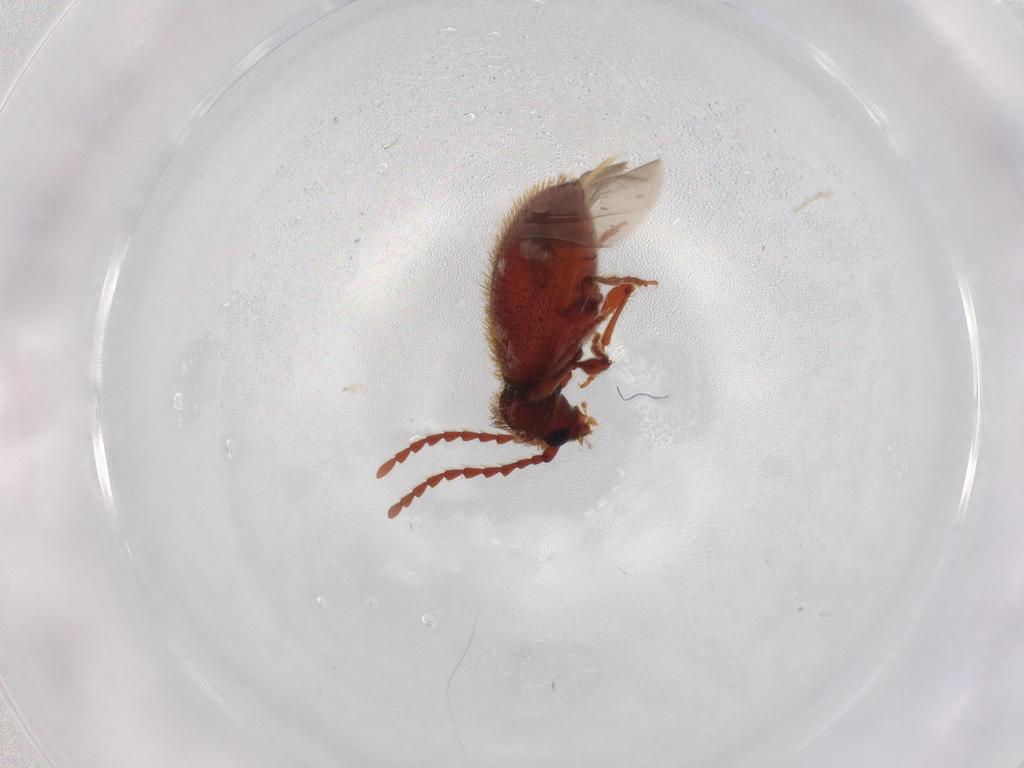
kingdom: Animalia
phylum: Arthropoda
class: Insecta
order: Coleoptera
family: Ptinidae
